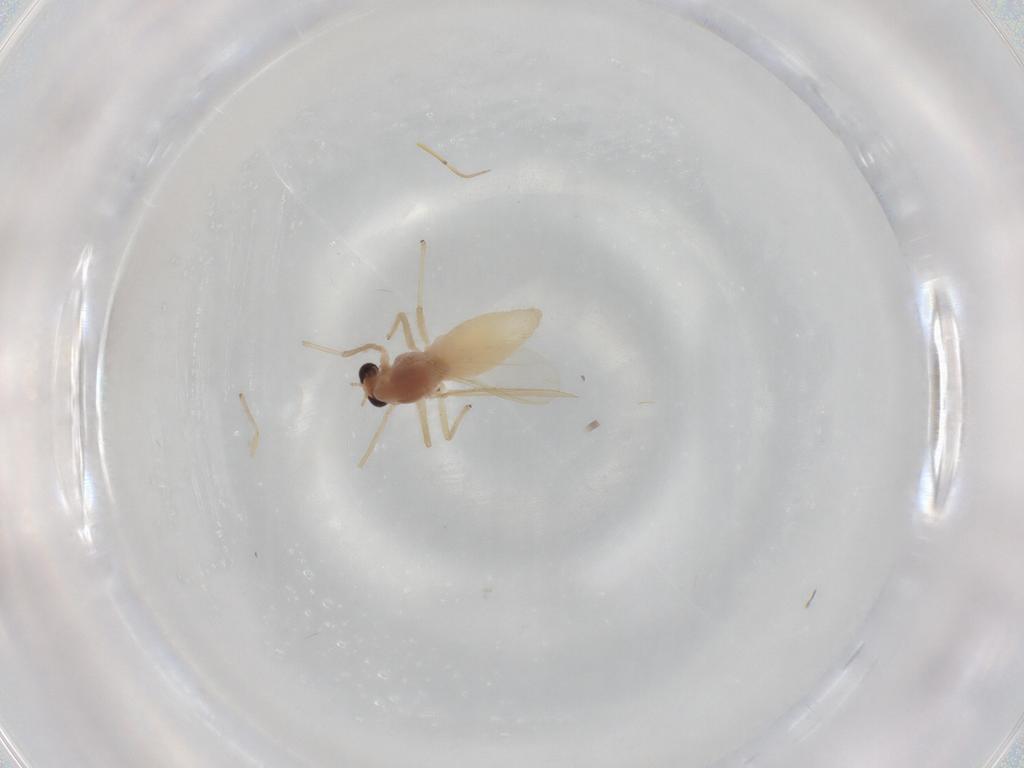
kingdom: Animalia
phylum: Arthropoda
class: Insecta
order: Diptera
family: Chironomidae
